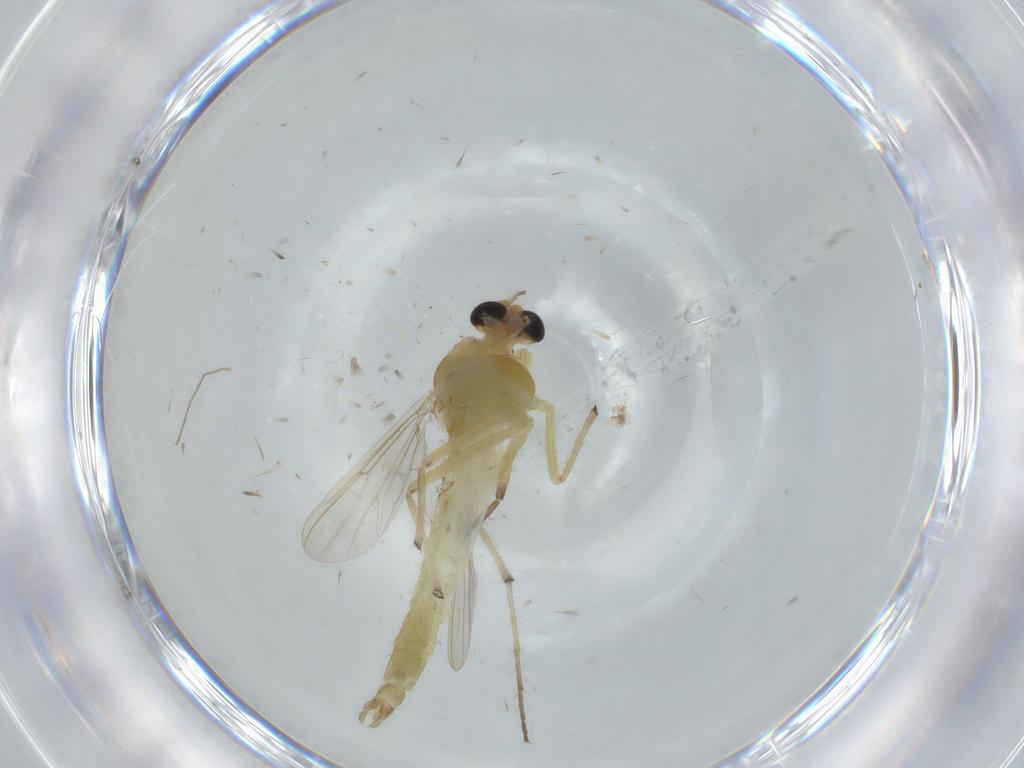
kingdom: Animalia
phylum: Arthropoda
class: Insecta
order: Diptera
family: Chironomidae
